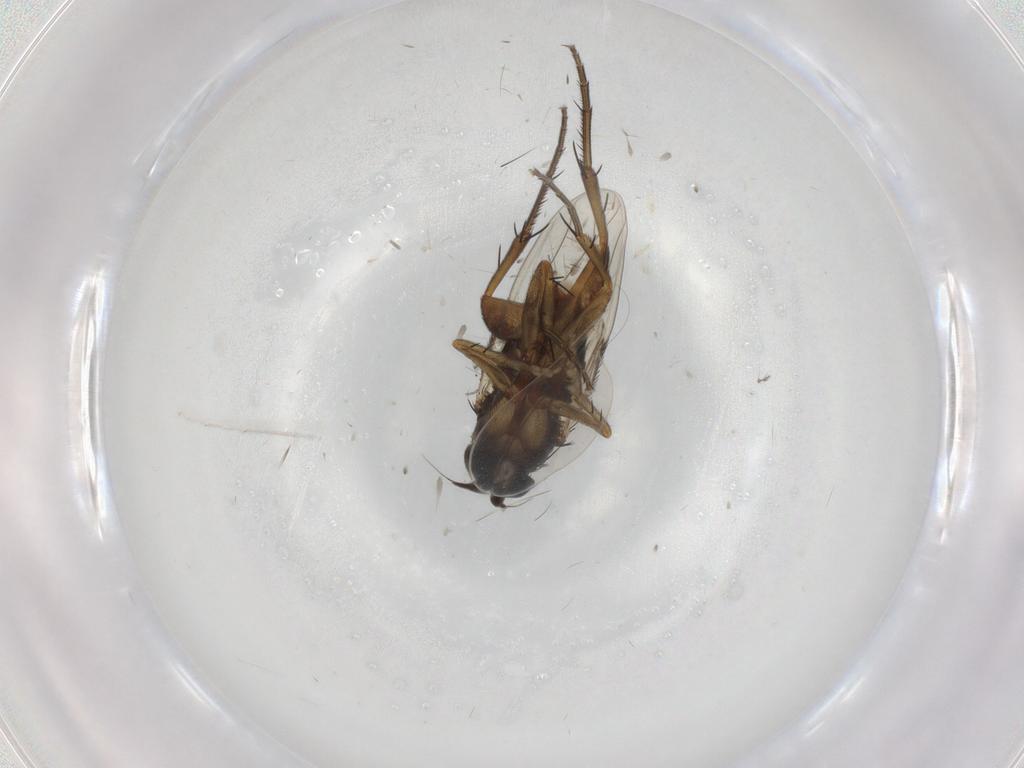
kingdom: Animalia
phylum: Arthropoda
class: Insecta
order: Diptera
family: Phoridae
